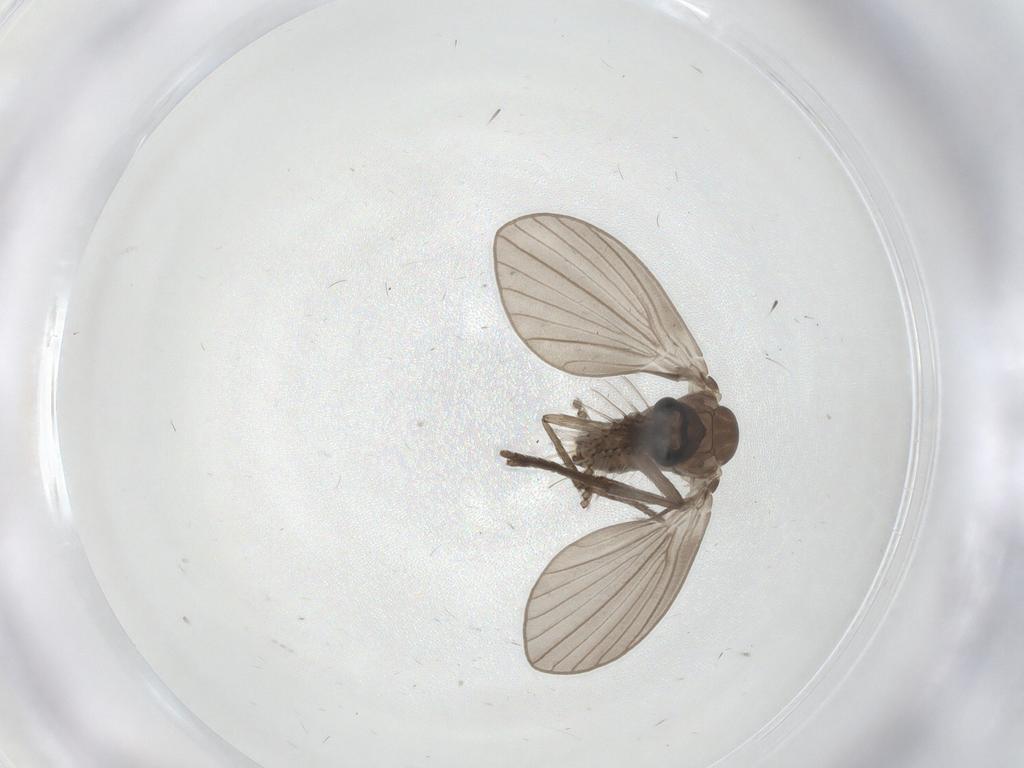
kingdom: Animalia
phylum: Arthropoda
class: Insecta
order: Diptera
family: Psychodidae
